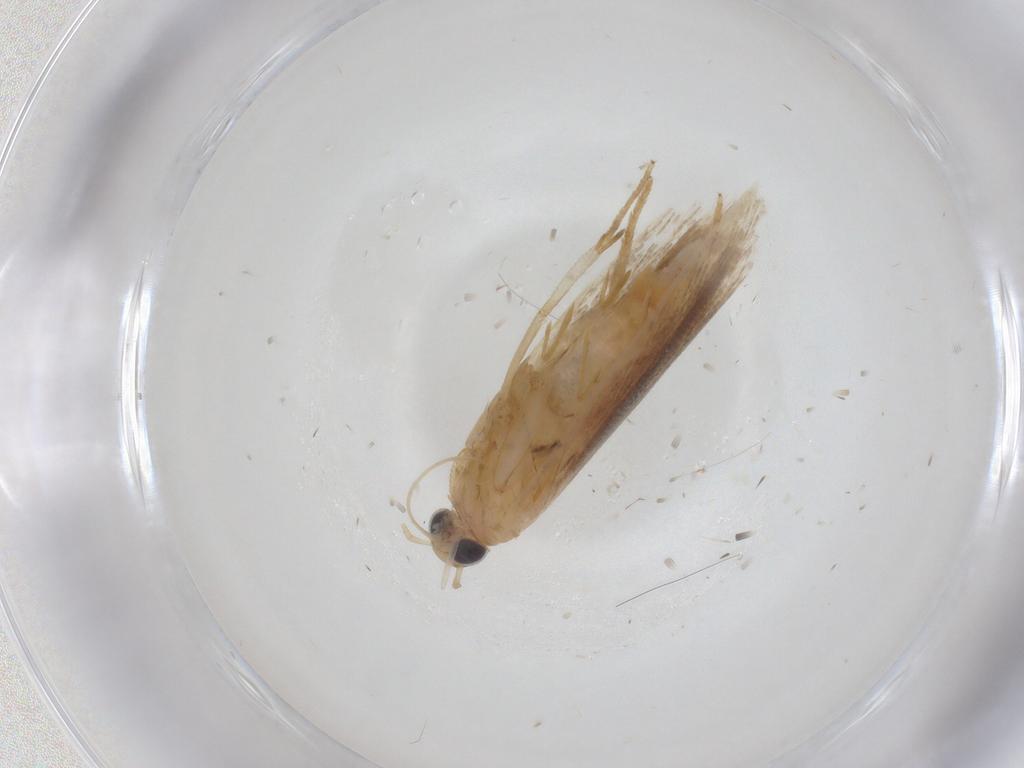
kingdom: Animalia
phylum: Arthropoda
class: Insecta
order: Lepidoptera
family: Gelechiidae
